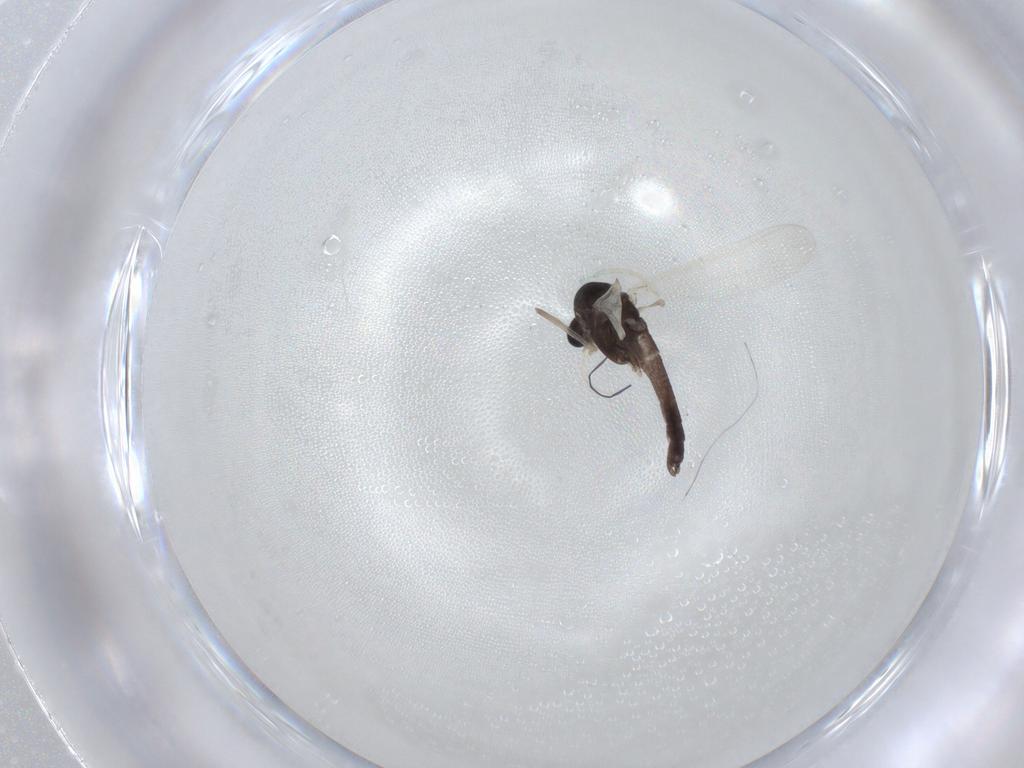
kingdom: Animalia
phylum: Arthropoda
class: Insecta
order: Diptera
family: Chironomidae
